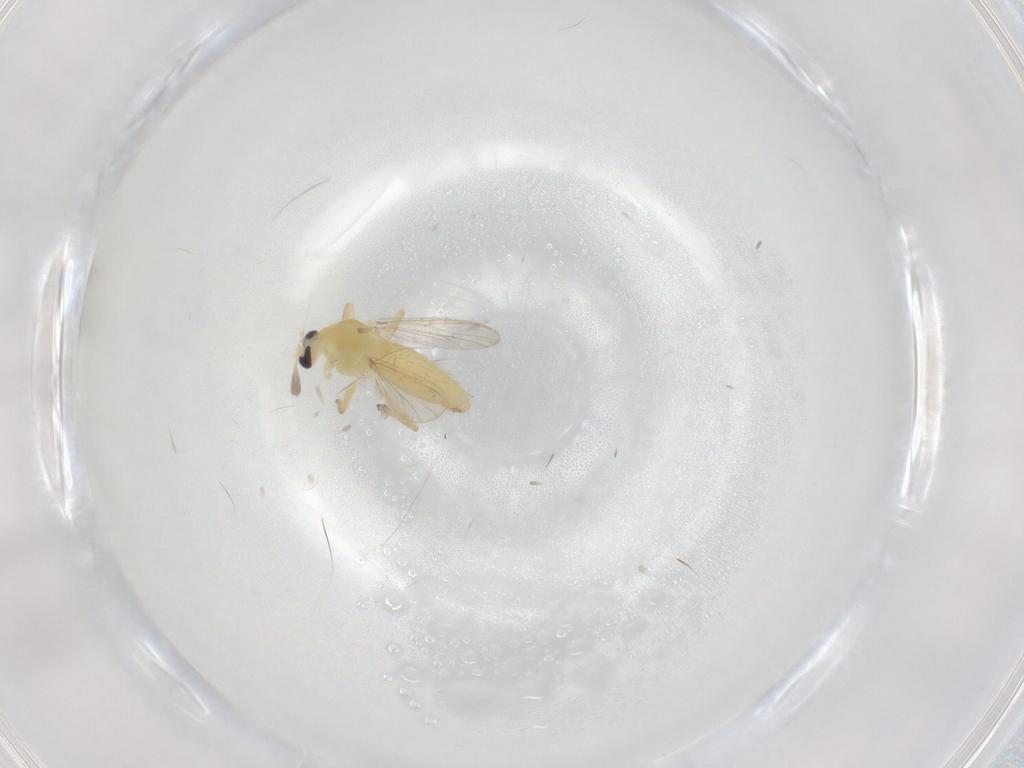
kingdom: Animalia
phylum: Arthropoda
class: Insecta
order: Diptera
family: Chironomidae
